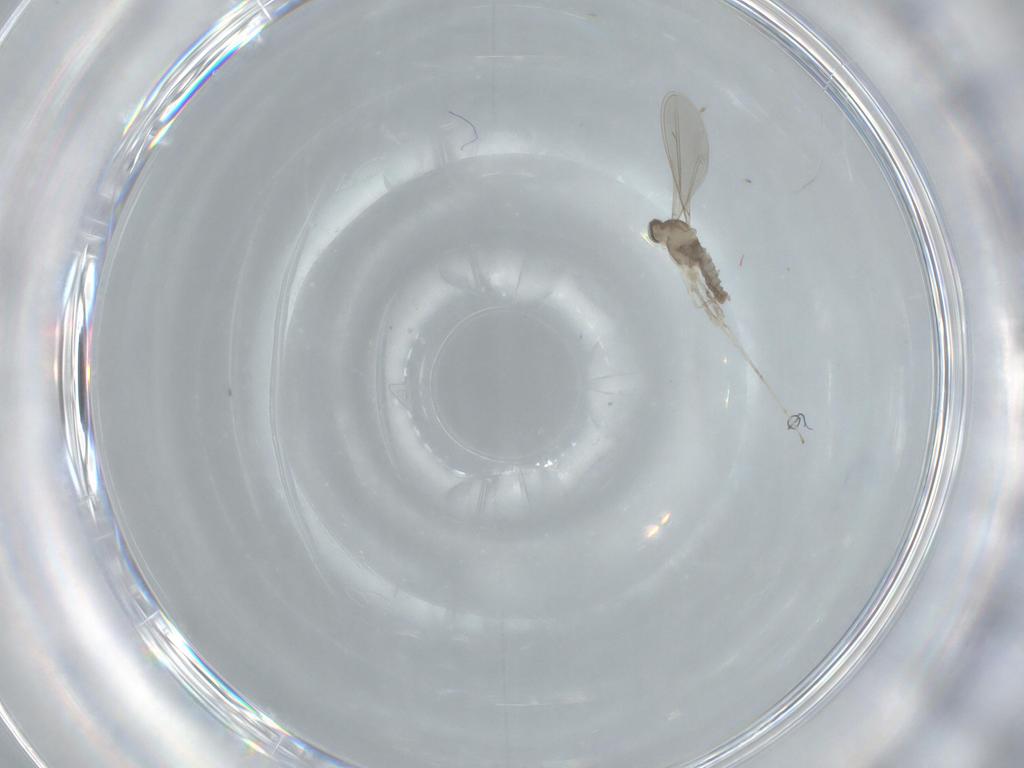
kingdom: Animalia
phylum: Arthropoda
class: Insecta
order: Diptera
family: Cecidomyiidae
